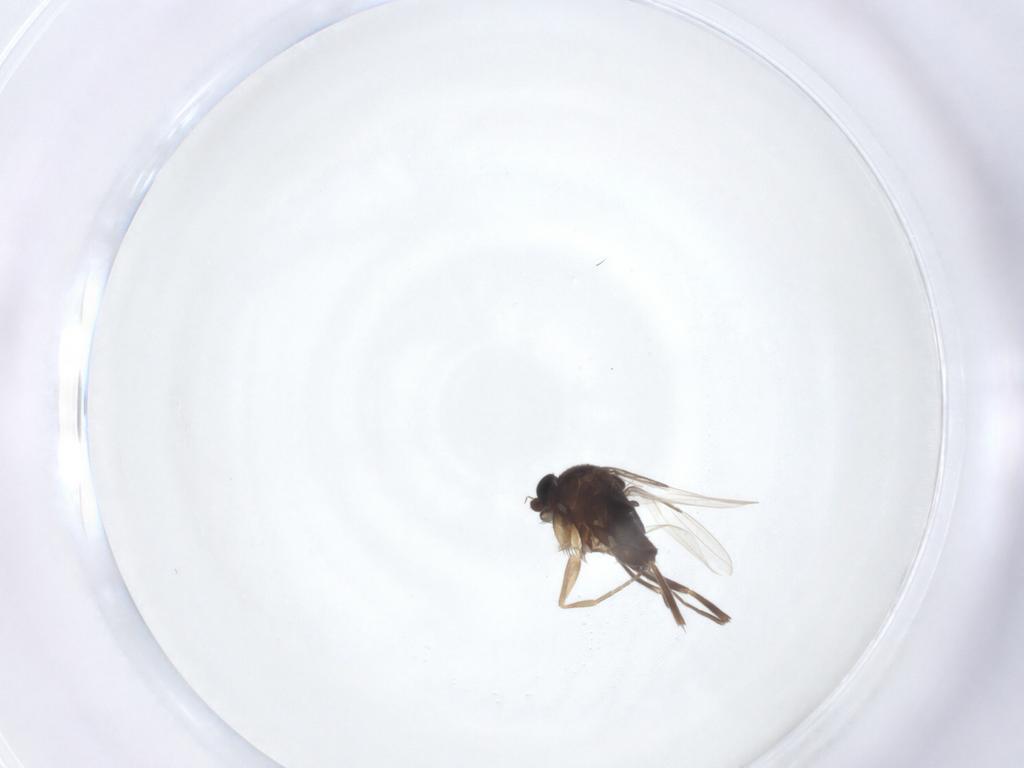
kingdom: Animalia
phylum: Arthropoda
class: Insecta
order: Diptera
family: Phoridae
